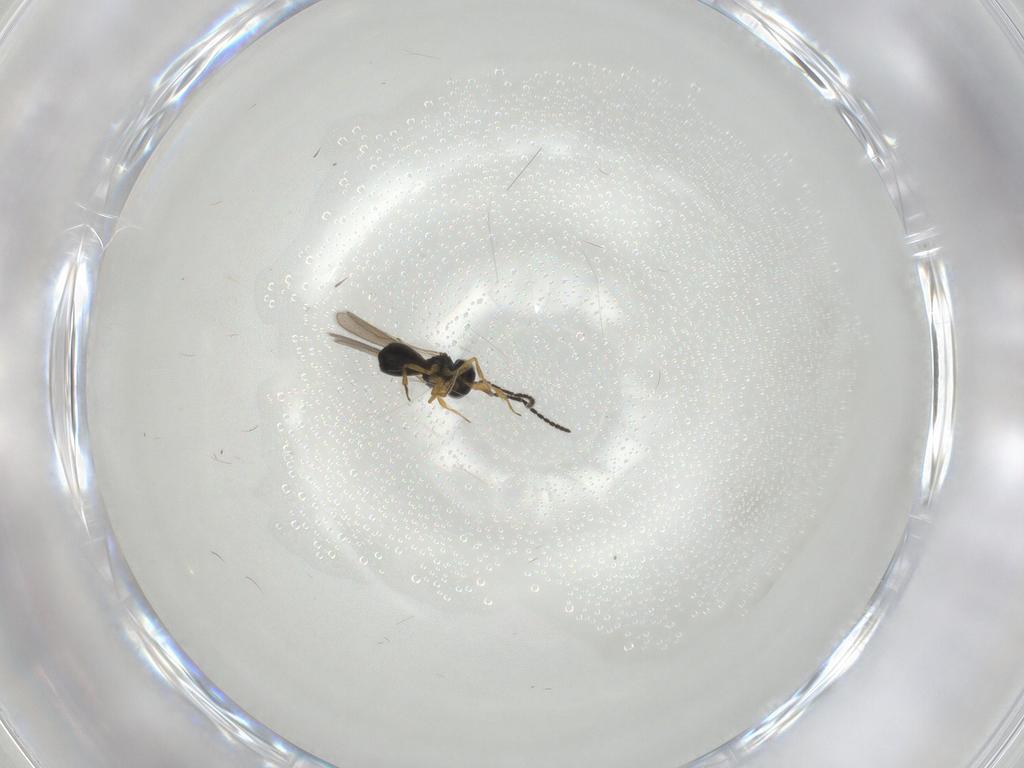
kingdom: Animalia
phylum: Arthropoda
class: Insecta
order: Hymenoptera
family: Scelionidae
